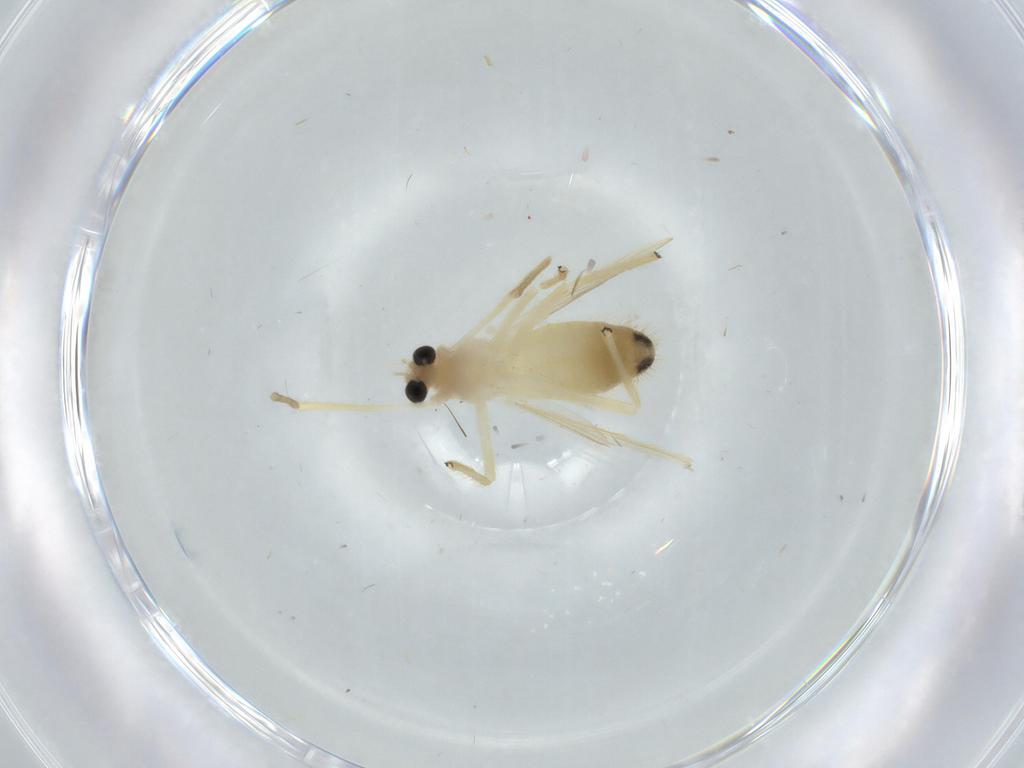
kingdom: Animalia
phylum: Arthropoda
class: Insecta
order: Diptera
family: Chironomidae
